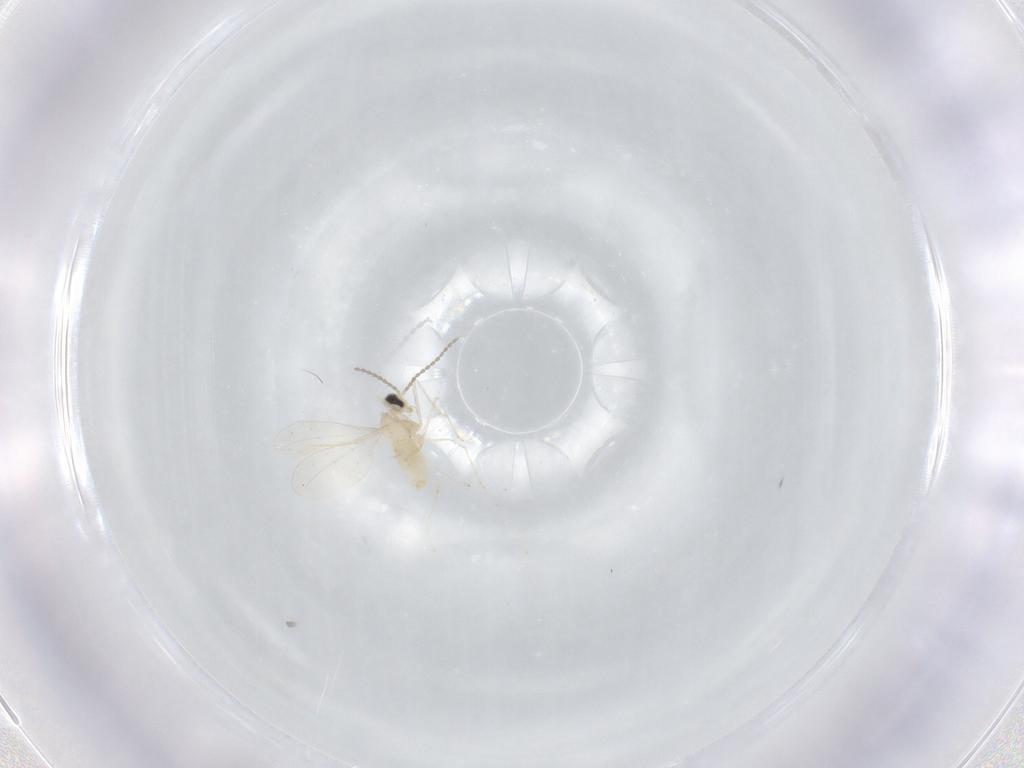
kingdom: Animalia
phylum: Arthropoda
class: Insecta
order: Diptera
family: Cecidomyiidae
